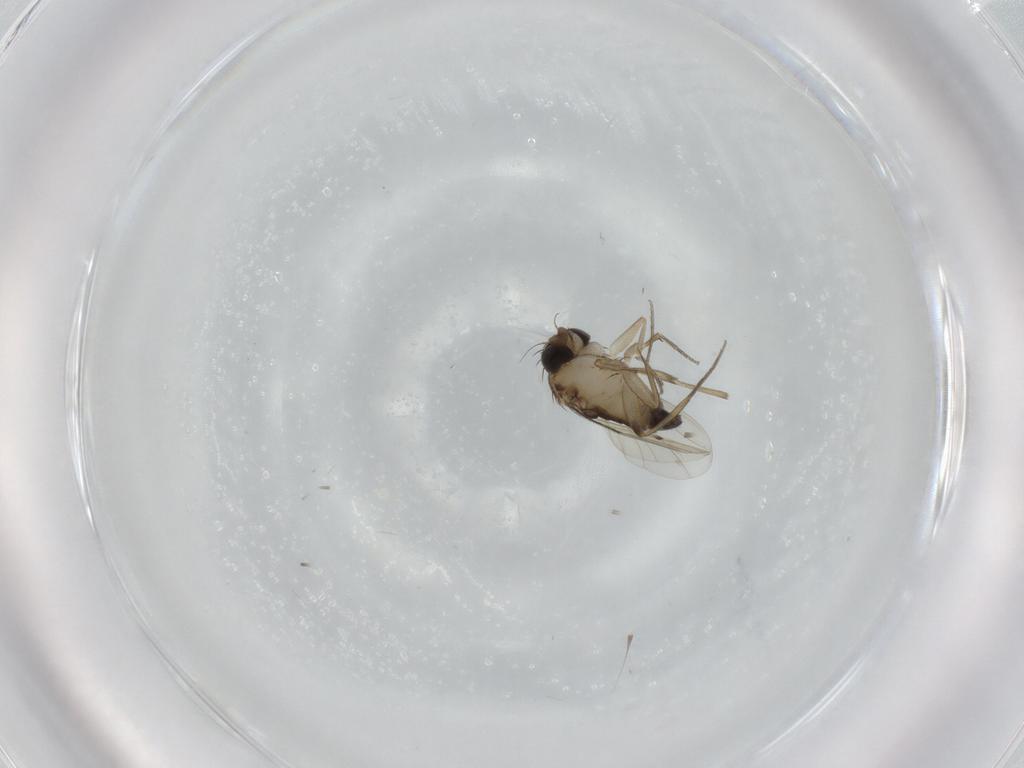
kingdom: Animalia
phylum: Arthropoda
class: Insecta
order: Diptera
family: Phoridae
